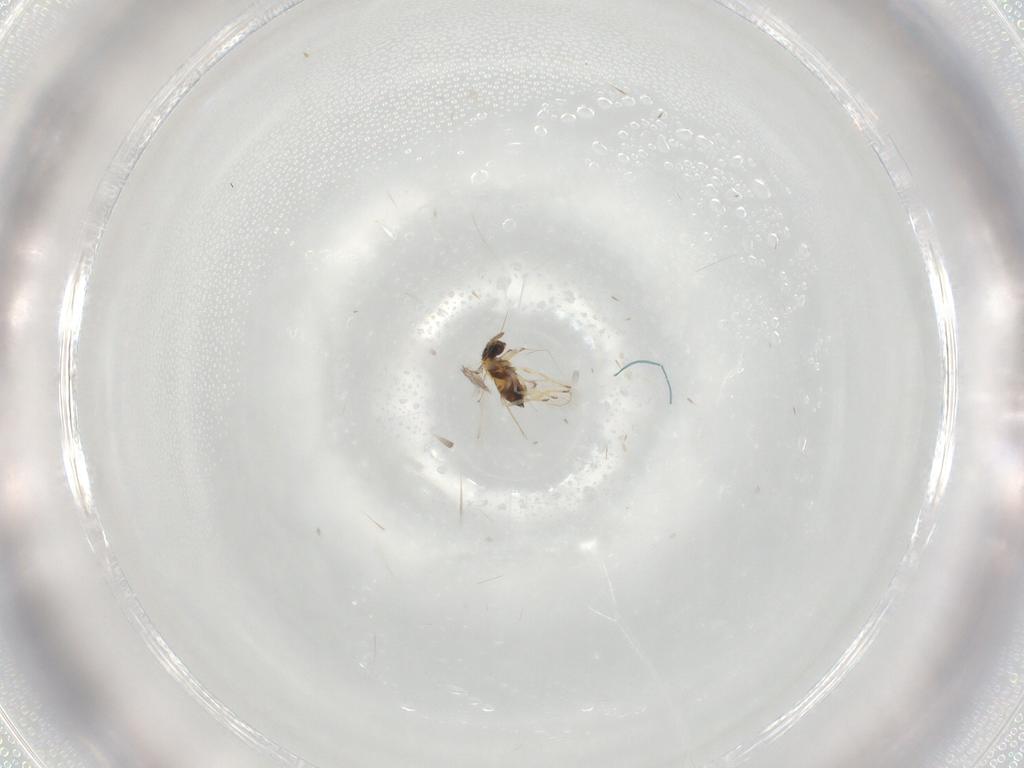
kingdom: Animalia
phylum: Arthropoda
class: Insecta
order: Hymenoptera
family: Trichogrammatidae
